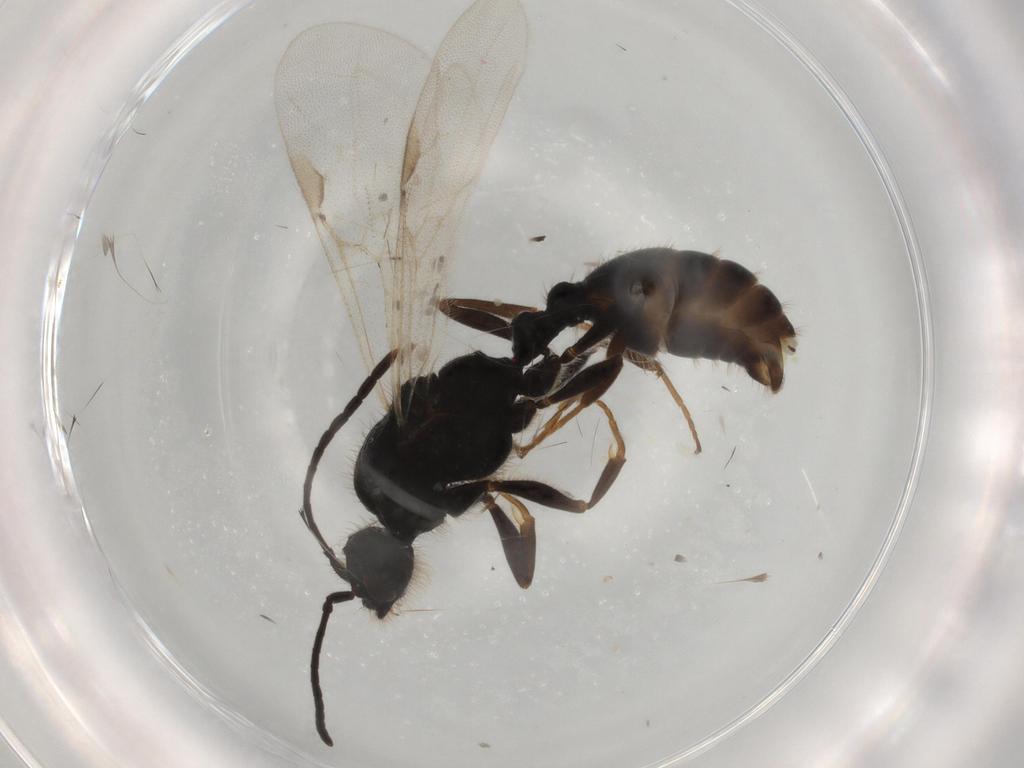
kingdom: Animalia
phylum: Arthropoda
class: Insecta
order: Hymenoptera
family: Formicidae
